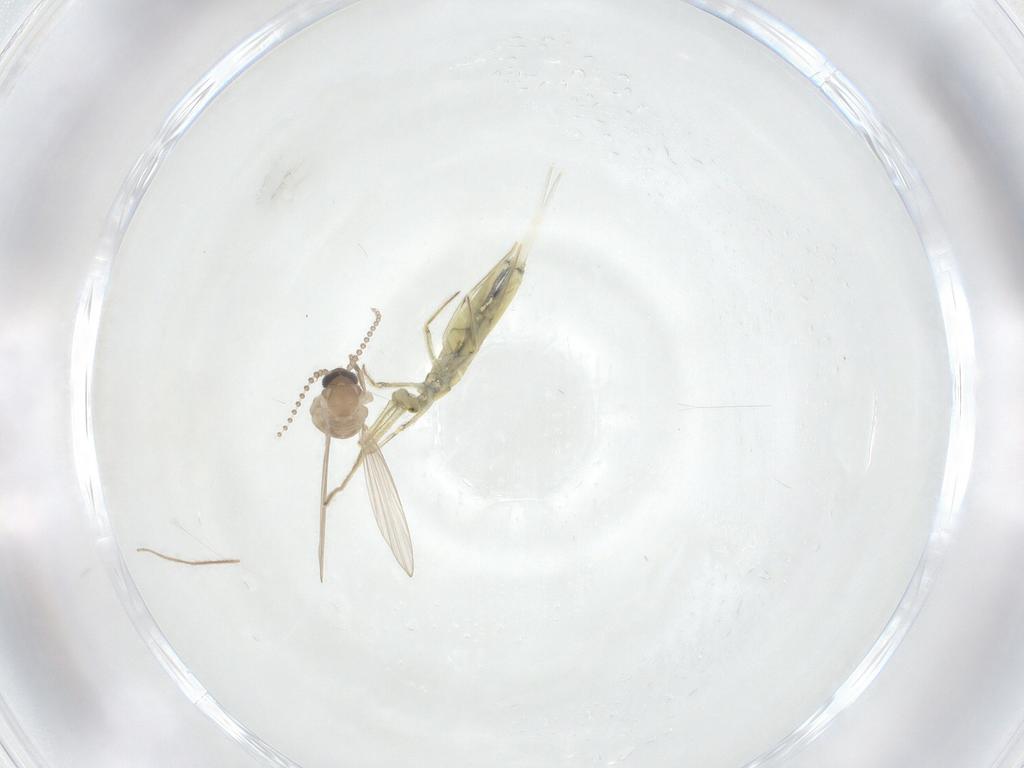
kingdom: Animalia
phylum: Arthropoda
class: Insecta
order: Diptera
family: Psychodidae
